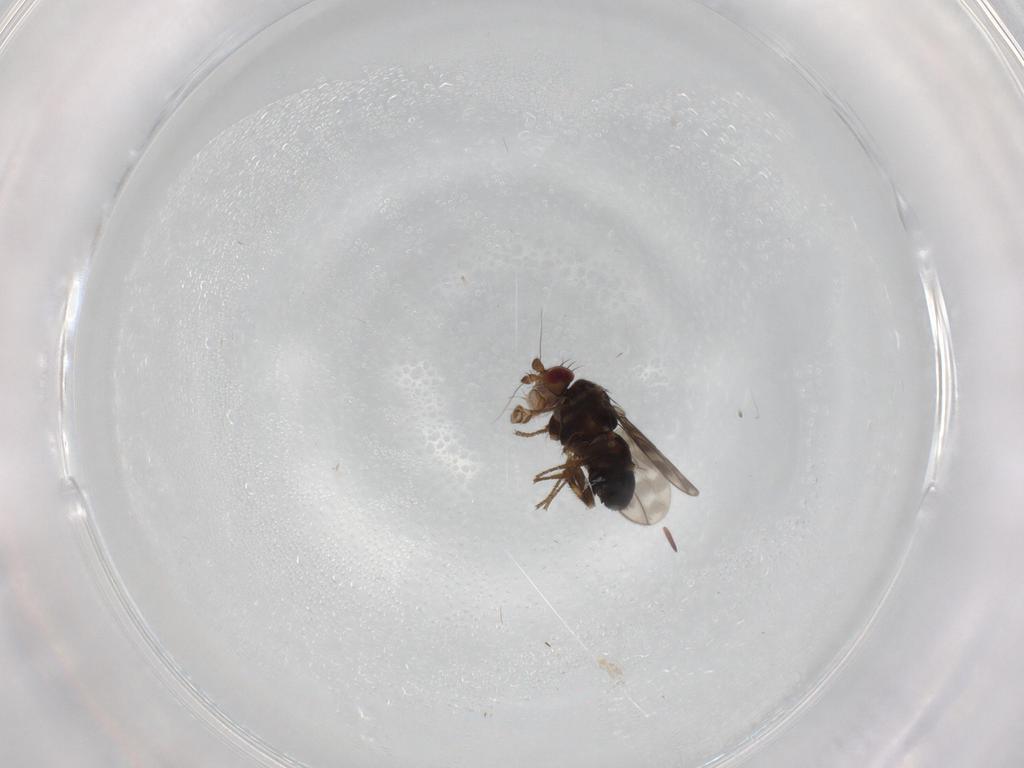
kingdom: Animalia
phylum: Arthropoda
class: Insecta
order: Diptera
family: Sphaeroceridae
